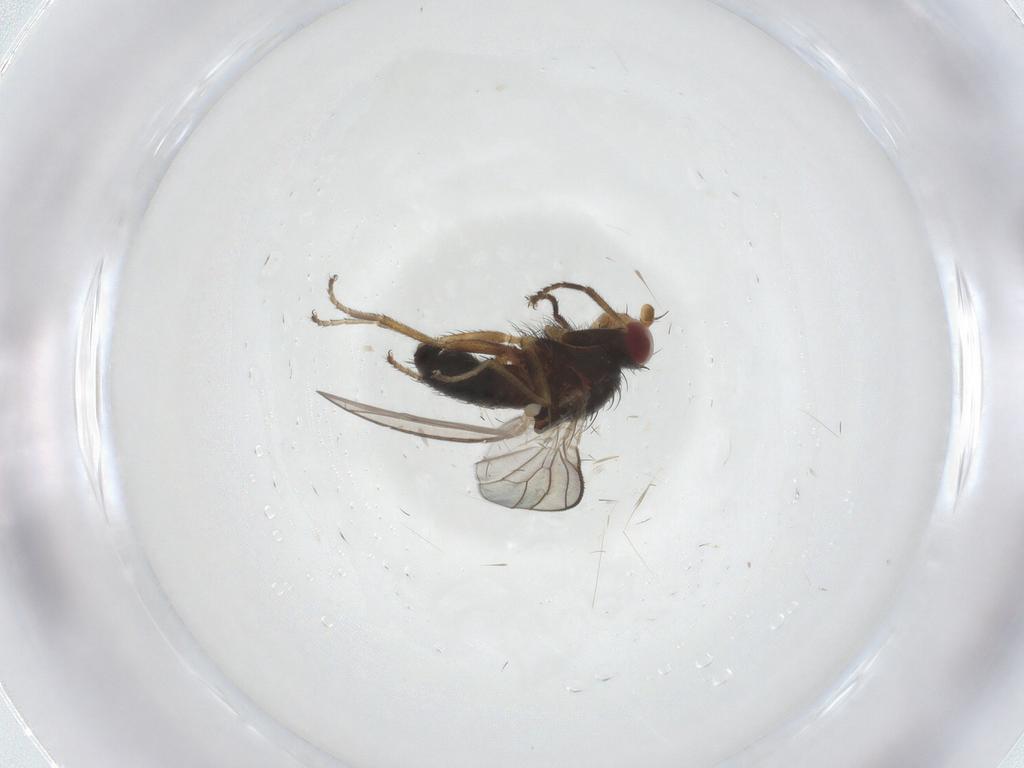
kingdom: Animalia
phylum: Arthropoda
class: Insecta
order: Diptera
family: Heleomyzidae
